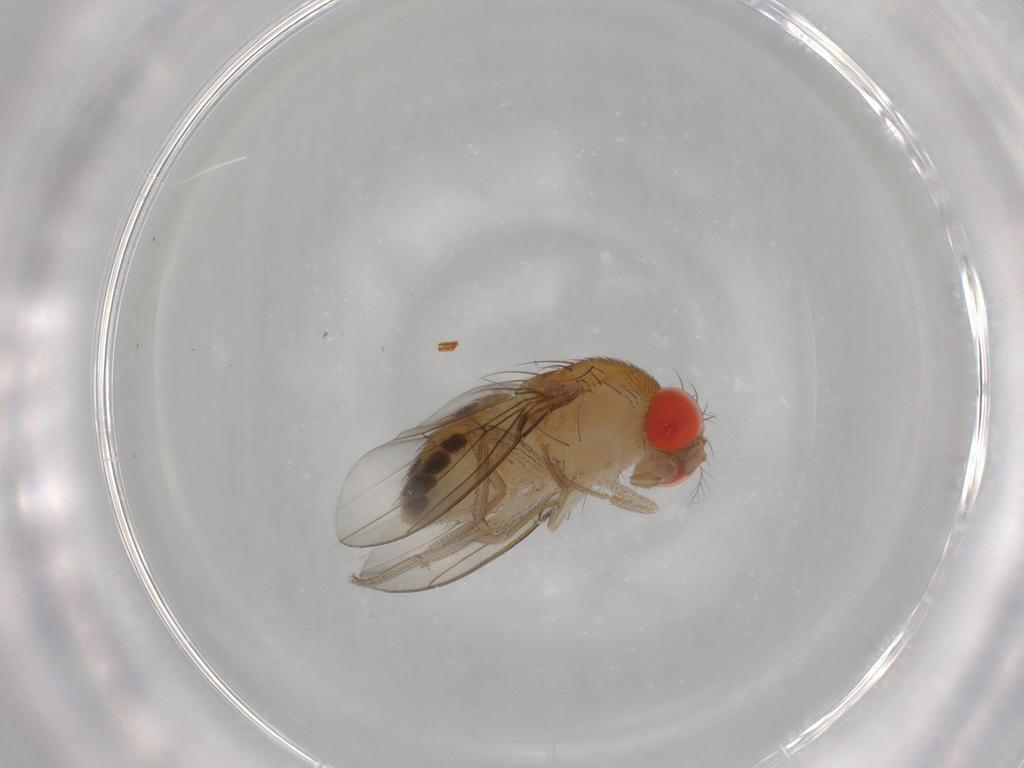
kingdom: Animalia
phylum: Arthropoda
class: Insecta
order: Diptera
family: Drosophilidae
